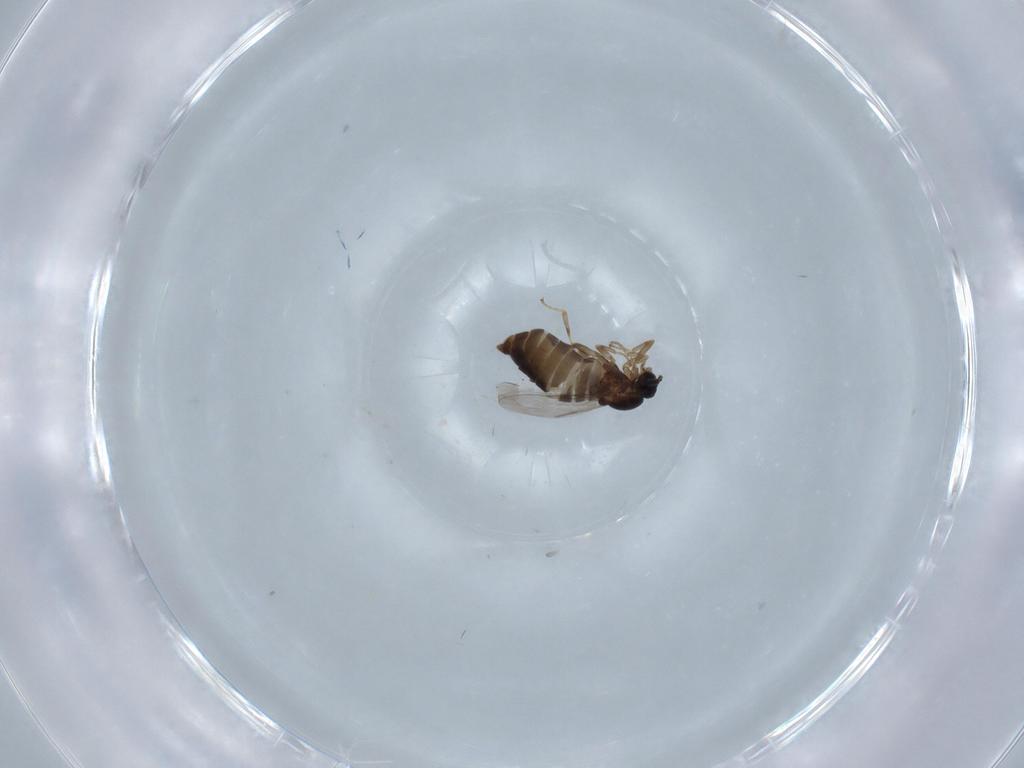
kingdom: Animalia
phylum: Arthropoda
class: Insecta
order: Diptera
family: Scatopsidae
